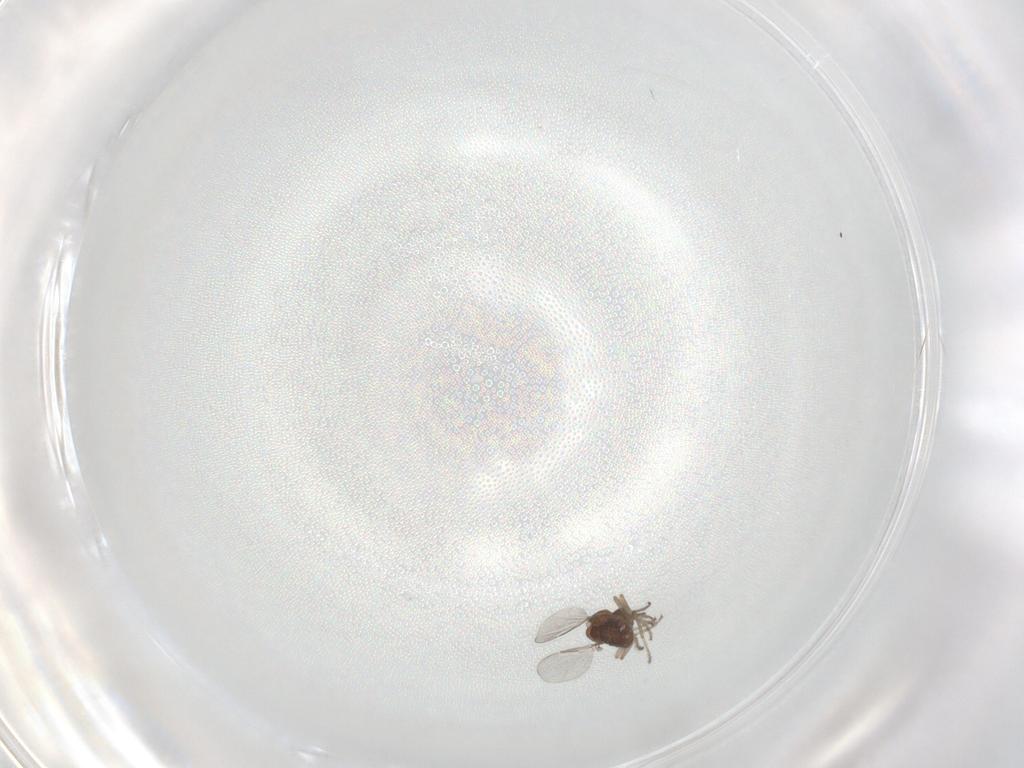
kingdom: Animalia
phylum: Arthropoda
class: Insecta
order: Diptera
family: Ceratopogonidae
